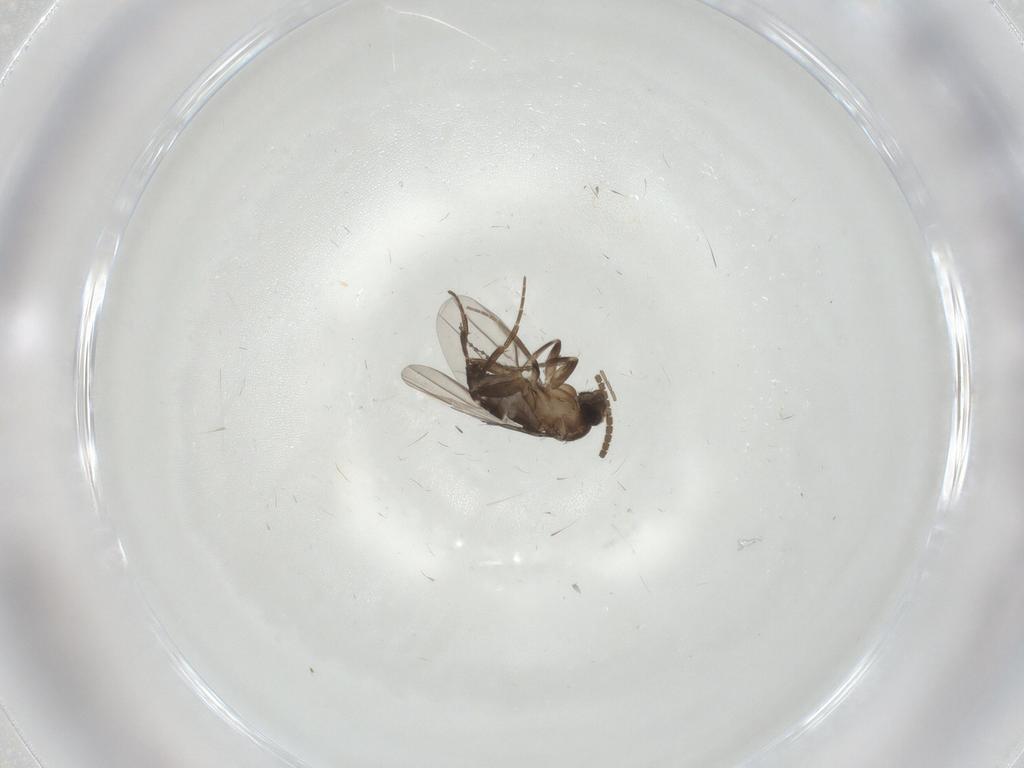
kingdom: Animalia
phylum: Arthropoda
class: Insecta
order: Diptera
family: Cecidomyiidae
